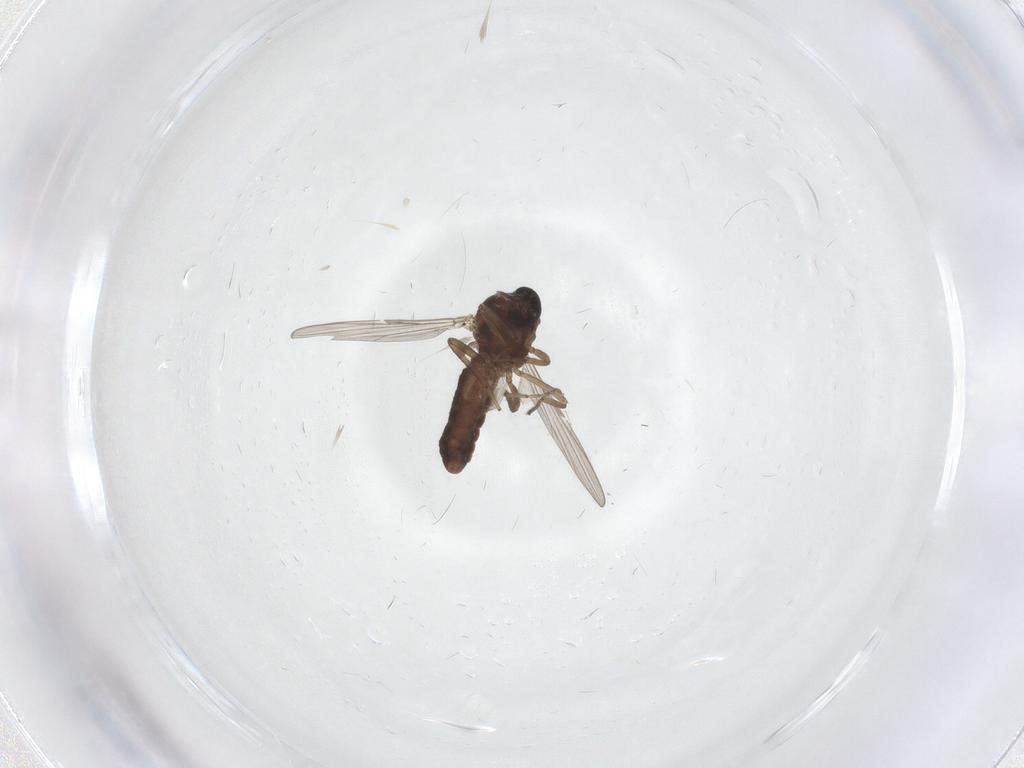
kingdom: Animalia
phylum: Arthropoda
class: Insecta
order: Diptera
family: Ceratopogonidae
